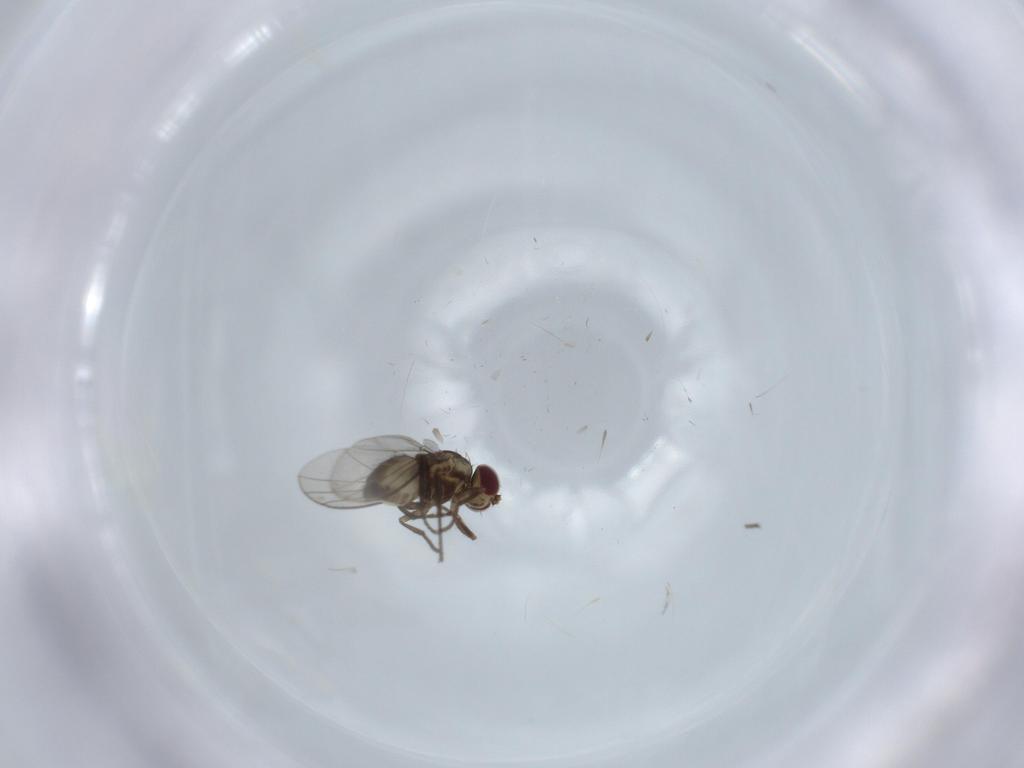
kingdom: Animalia
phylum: Arthropoda
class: Insecta
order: Diptera
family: Agromyzidae
